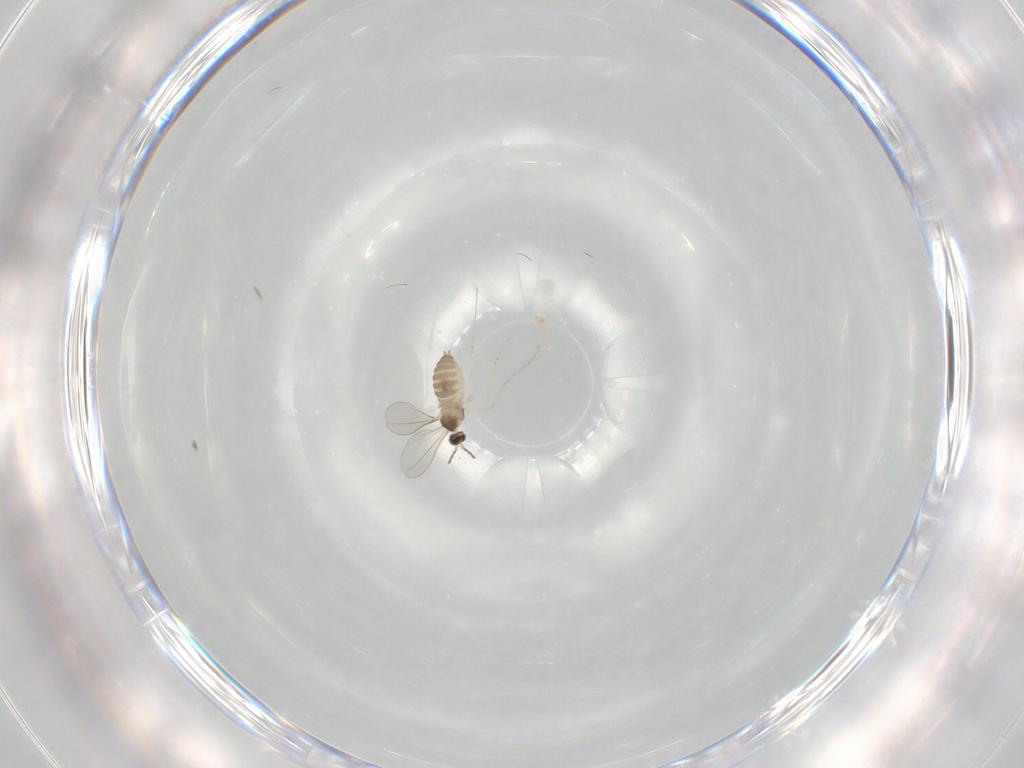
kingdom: Animalia
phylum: Arthropoda
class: Insecta
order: Diptera
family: Cecidomyiidae
